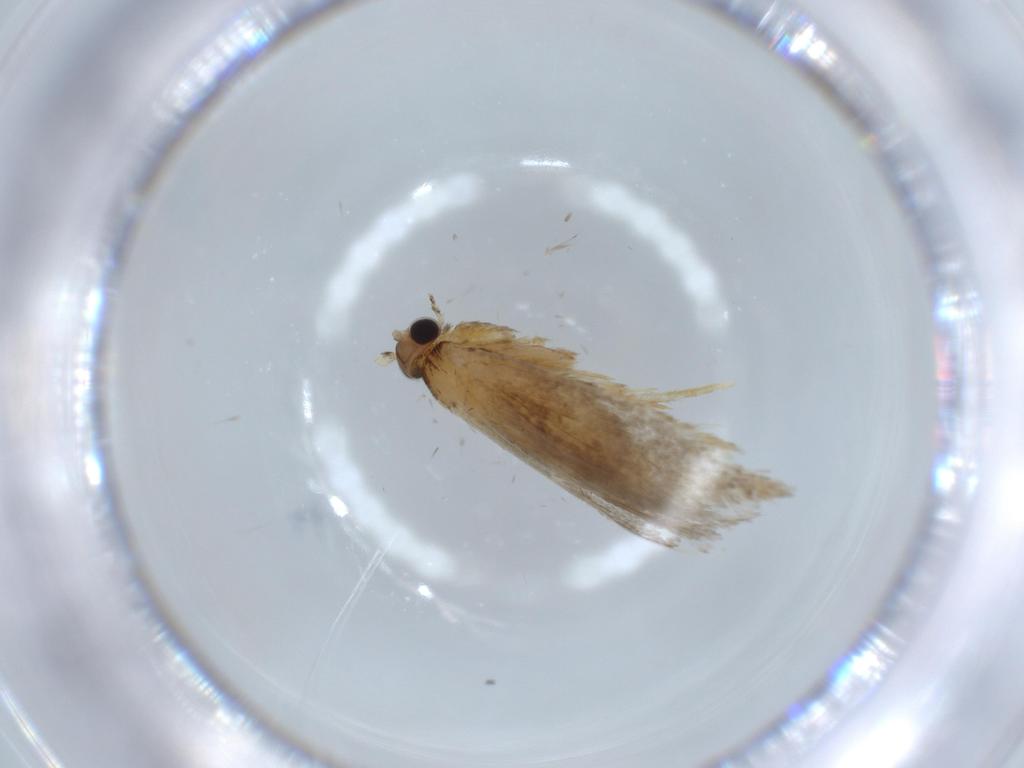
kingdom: Animalia
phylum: Arthropoda
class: Insecta
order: Lepidoptera
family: Tineidae
